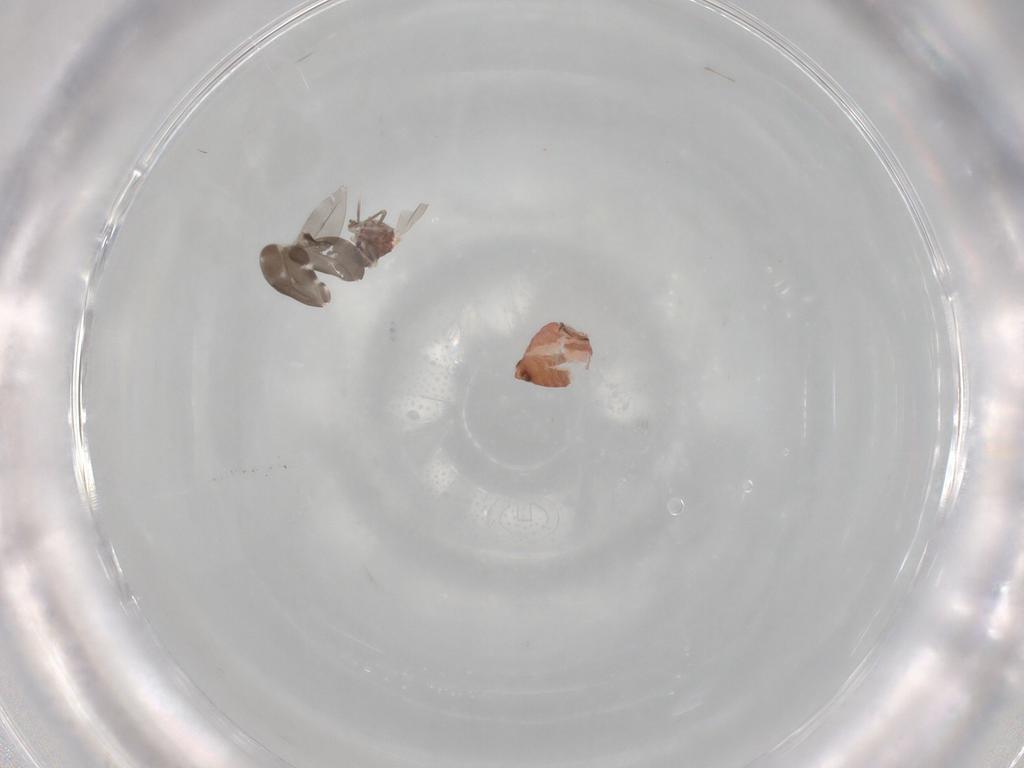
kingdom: Animalia
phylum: Arthropoda
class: Insecta
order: Hemiptera
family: Aleyrodidae
